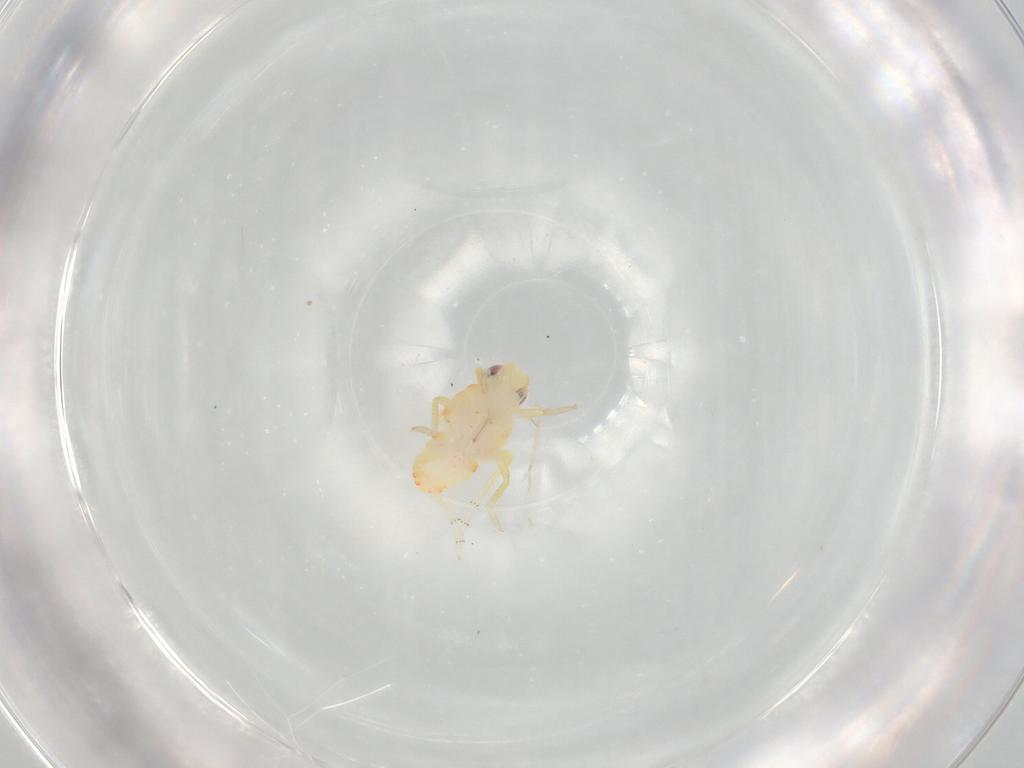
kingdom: Animalia
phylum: Arthropoda
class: Insecta
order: Hemiptera
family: Tropiduchidae
